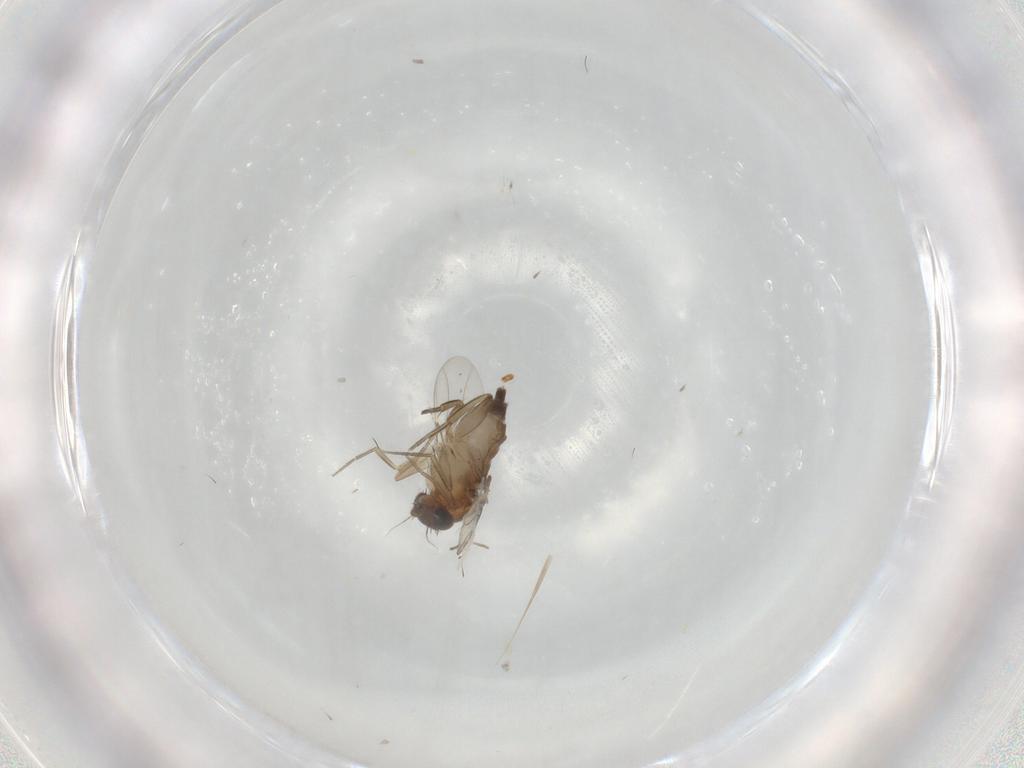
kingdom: Animalia
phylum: Arthropoda
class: Insecta
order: Diptera
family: Phoridae
